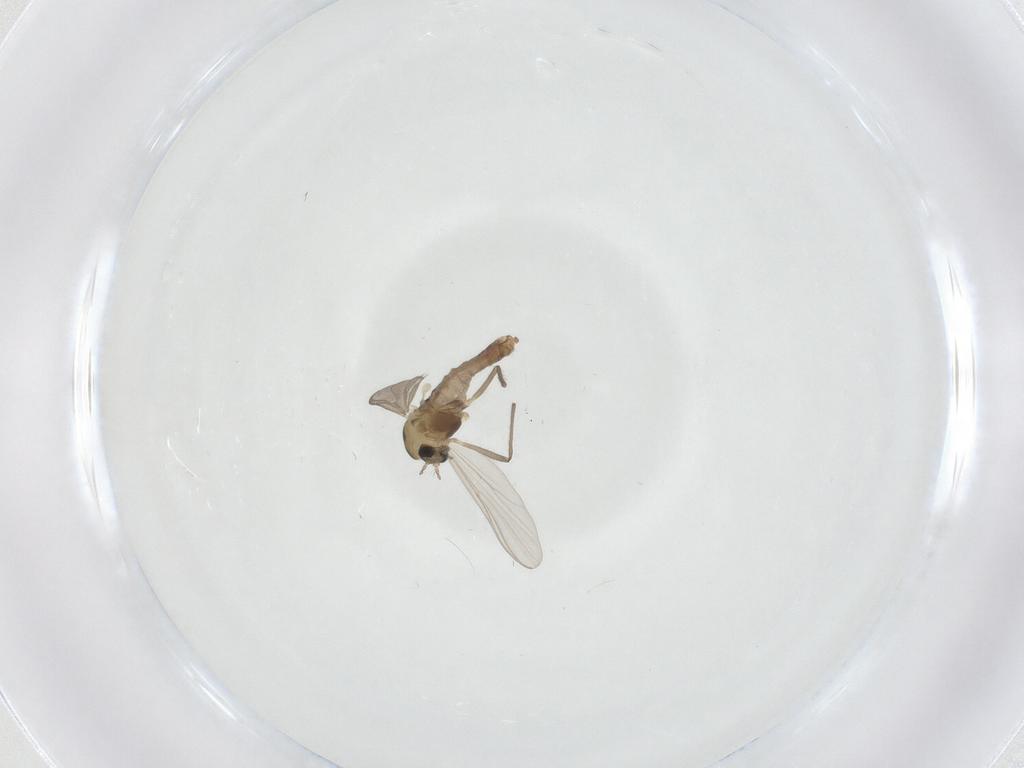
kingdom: Animalia
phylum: Arthropoda
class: Insecta
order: Diptera
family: Chironomidae
